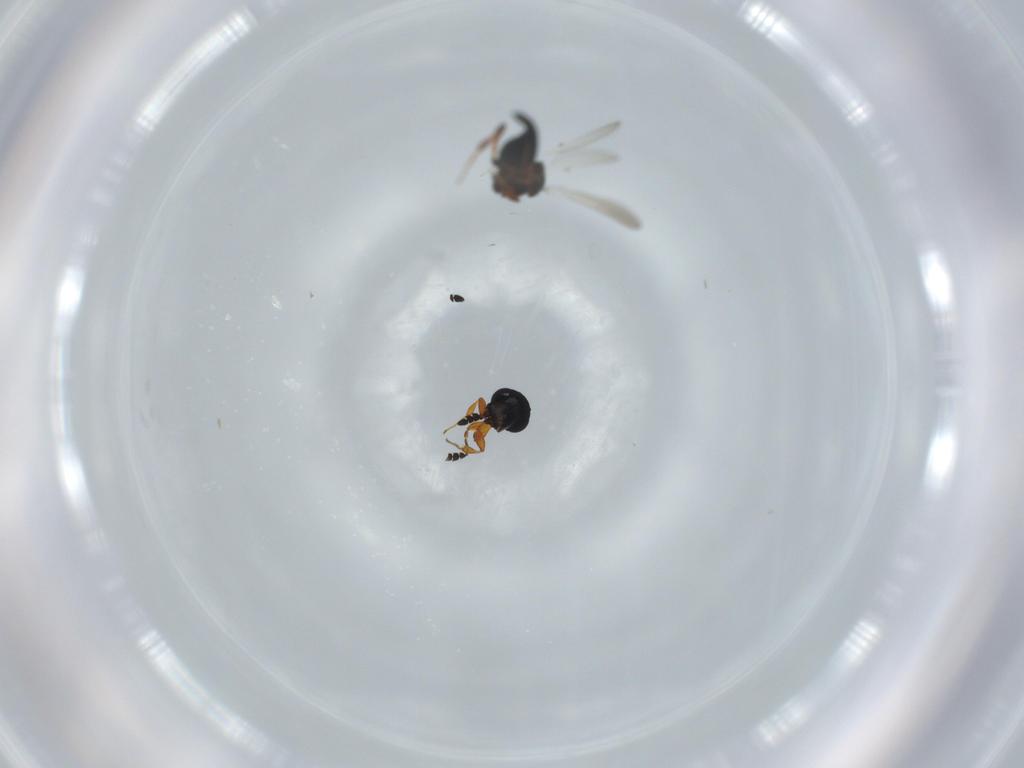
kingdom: Animalia
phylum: Arthropoda
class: Insecta
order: Hymenoptera
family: Platygastridae
